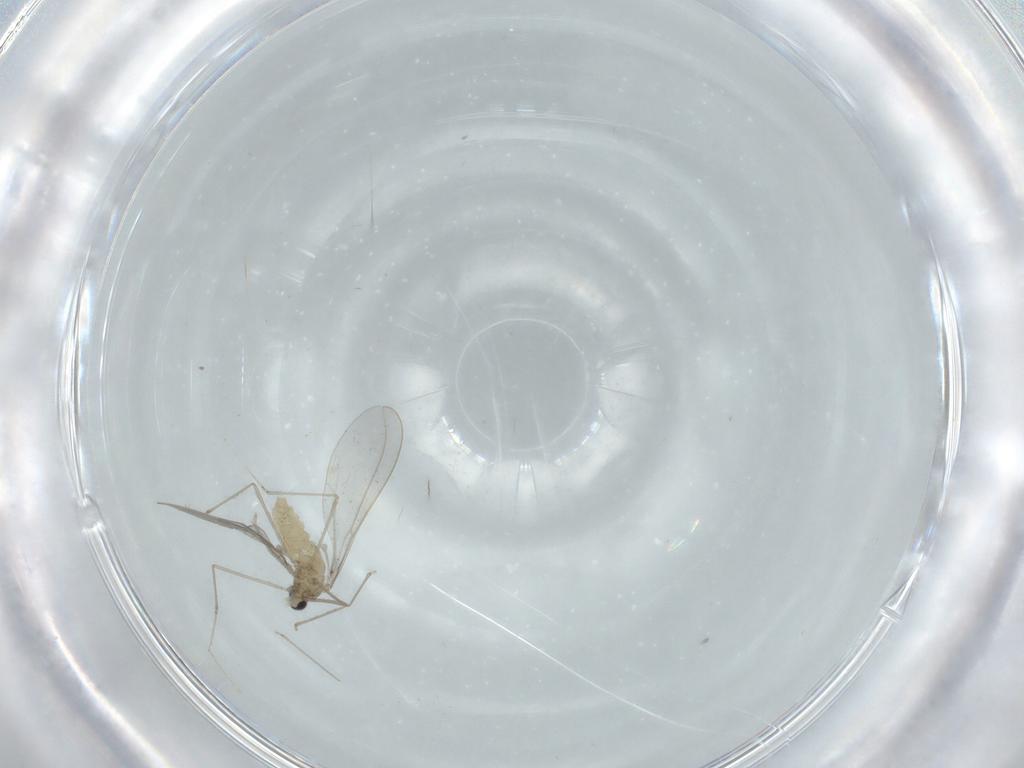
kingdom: Animalia
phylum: Arthropoda
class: Insecta
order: Diptera
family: Cecidomyiidae
